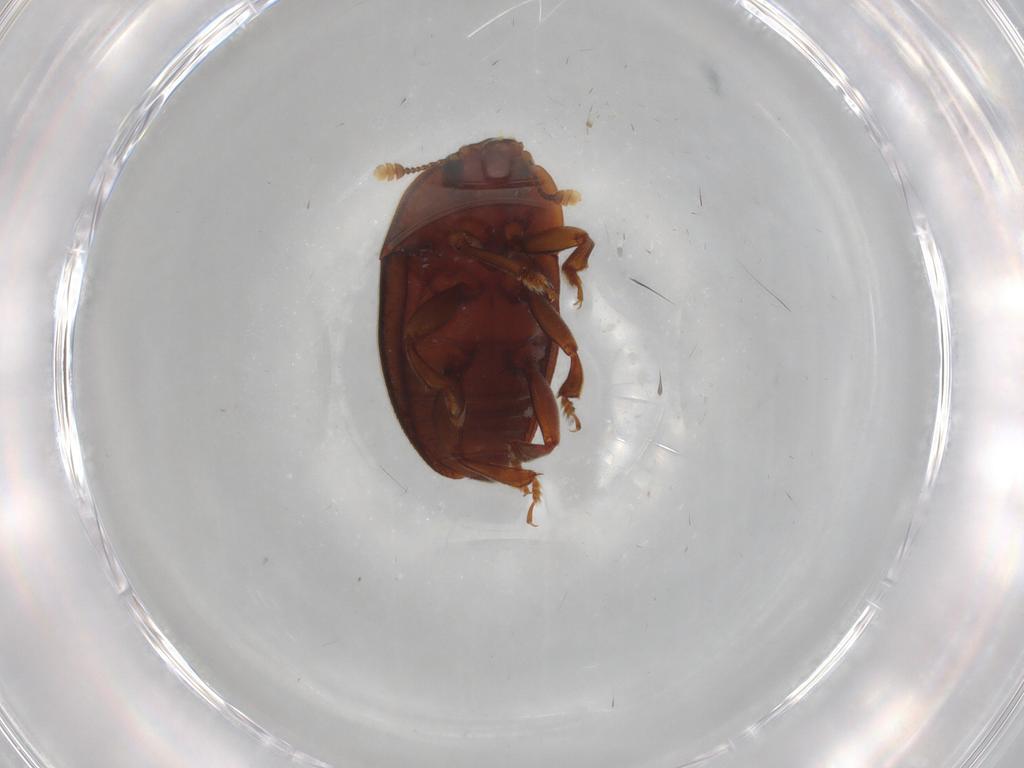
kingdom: Animalia
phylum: Arthropoda
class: Insecta
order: Coleoptera
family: Nitidulidae
